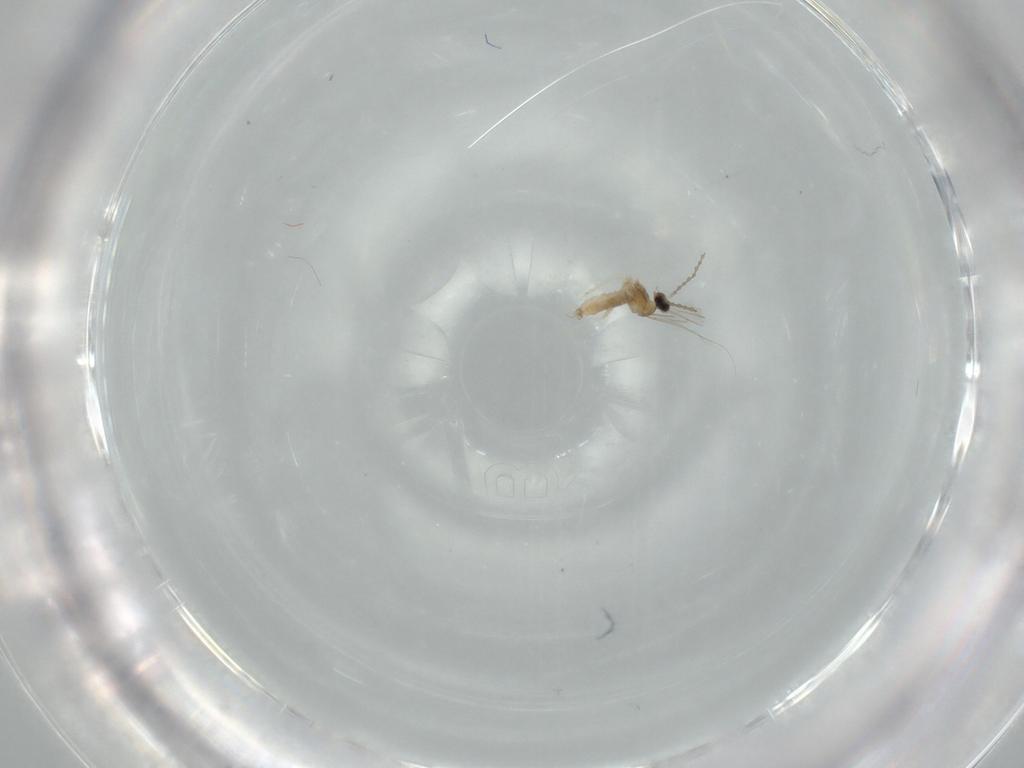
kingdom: Animalia
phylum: Arthropoda
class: Insecta
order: Diptera
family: Cecidomyiidae
